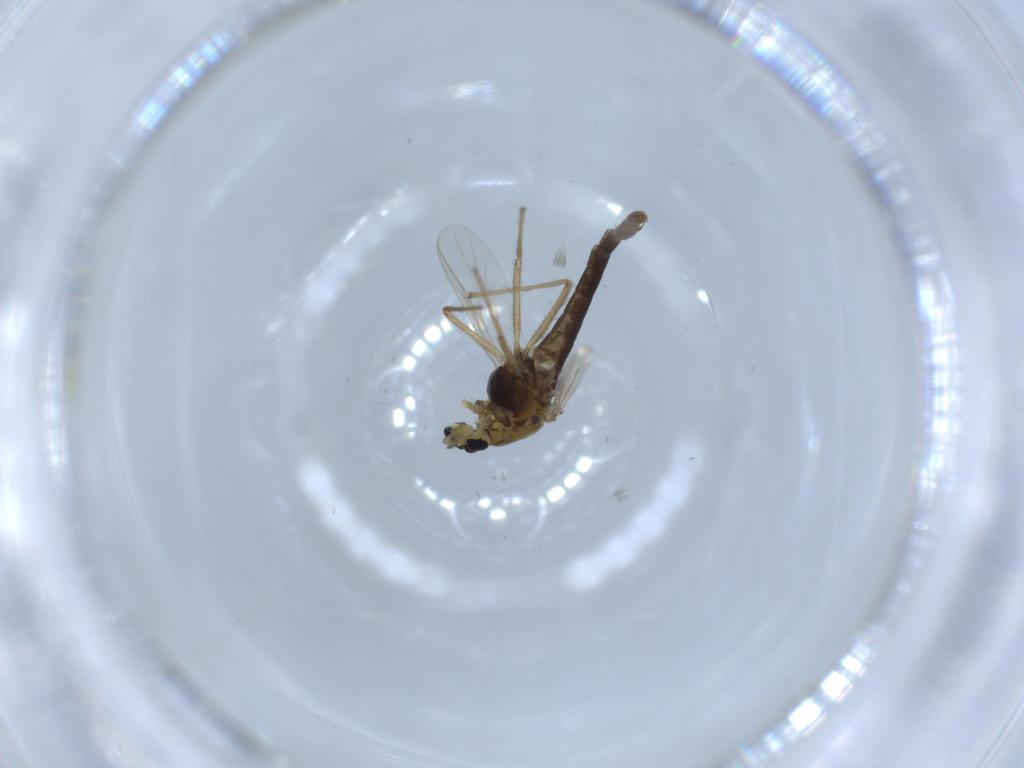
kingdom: Animalia
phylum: Arthropoda
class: Insecta
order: Diptera
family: Chironomidae
